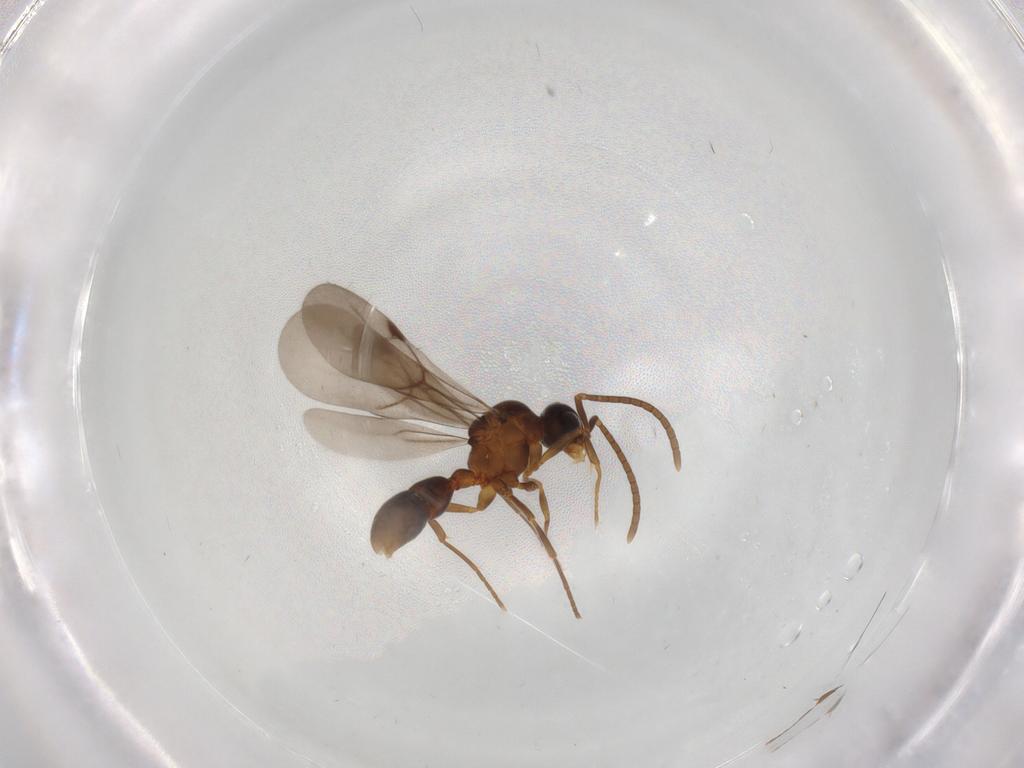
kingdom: Animalia
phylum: Arthropoda
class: Insecta
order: Hymenoptera
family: Formicidae
